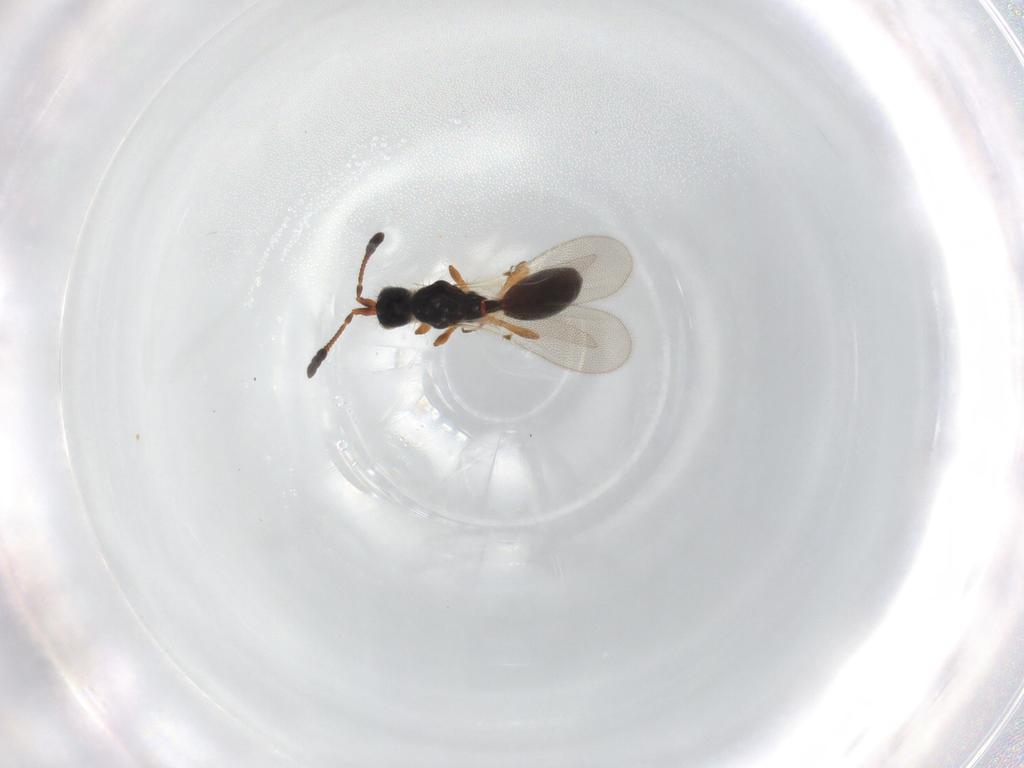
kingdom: Animalia
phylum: Arthropoda
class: Insecta
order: Hymenoptera
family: Diapriidae
